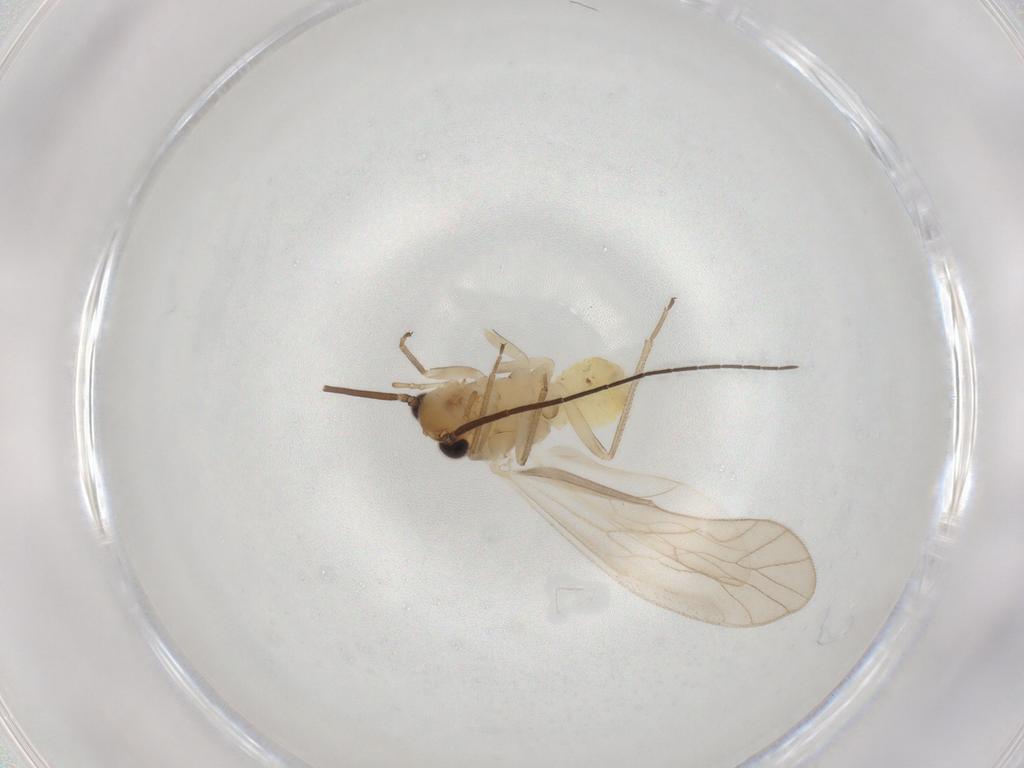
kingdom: Animalia
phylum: Arthropoda
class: Insecta
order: Psocodea
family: Caeciliusidae
